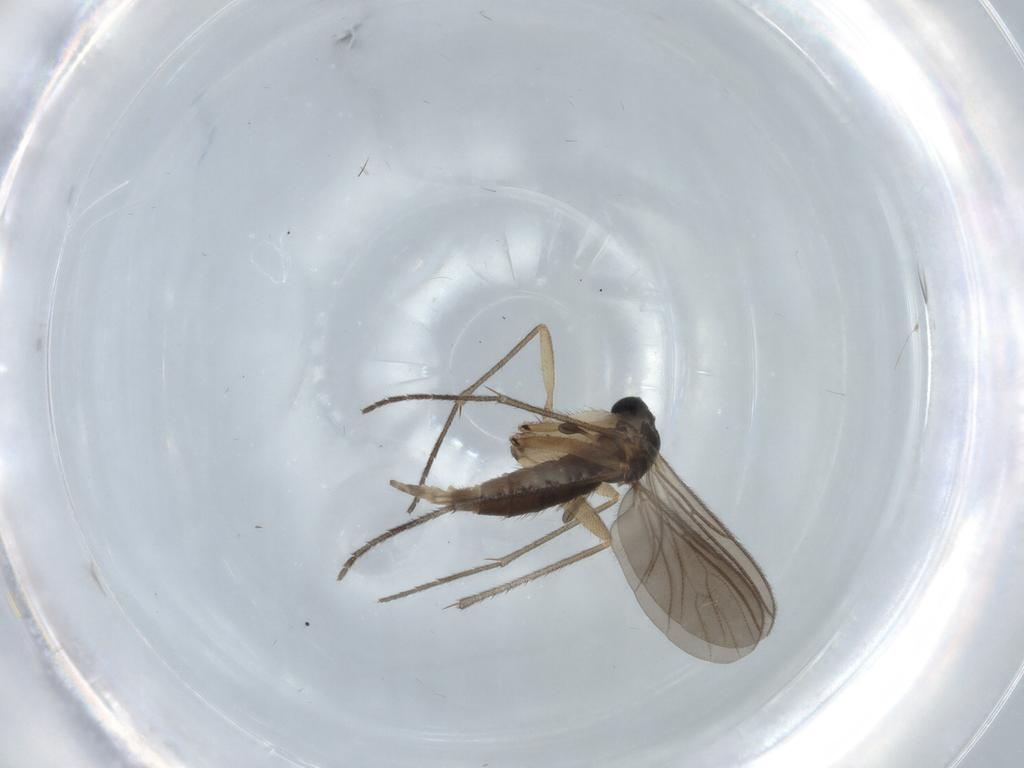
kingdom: Animalia
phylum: Arthropoda
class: Insecta
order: Diptera
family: Sciaridae
